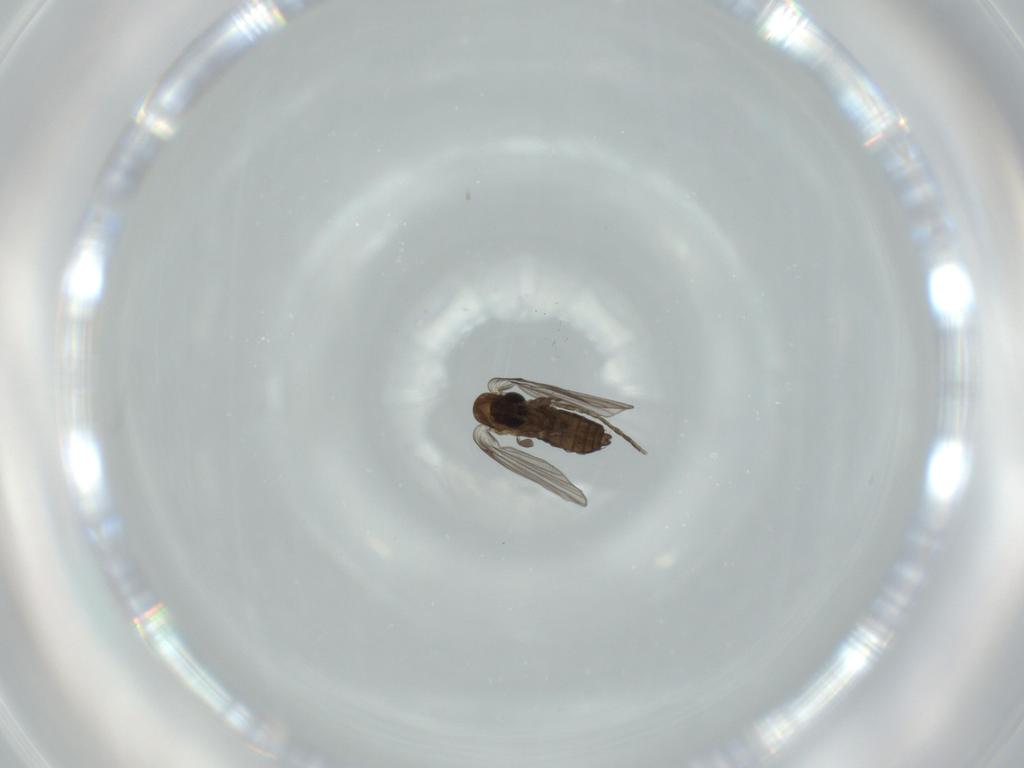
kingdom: Animalia
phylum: Arthropoda
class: Insecta
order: Diptera
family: Psychodidae
